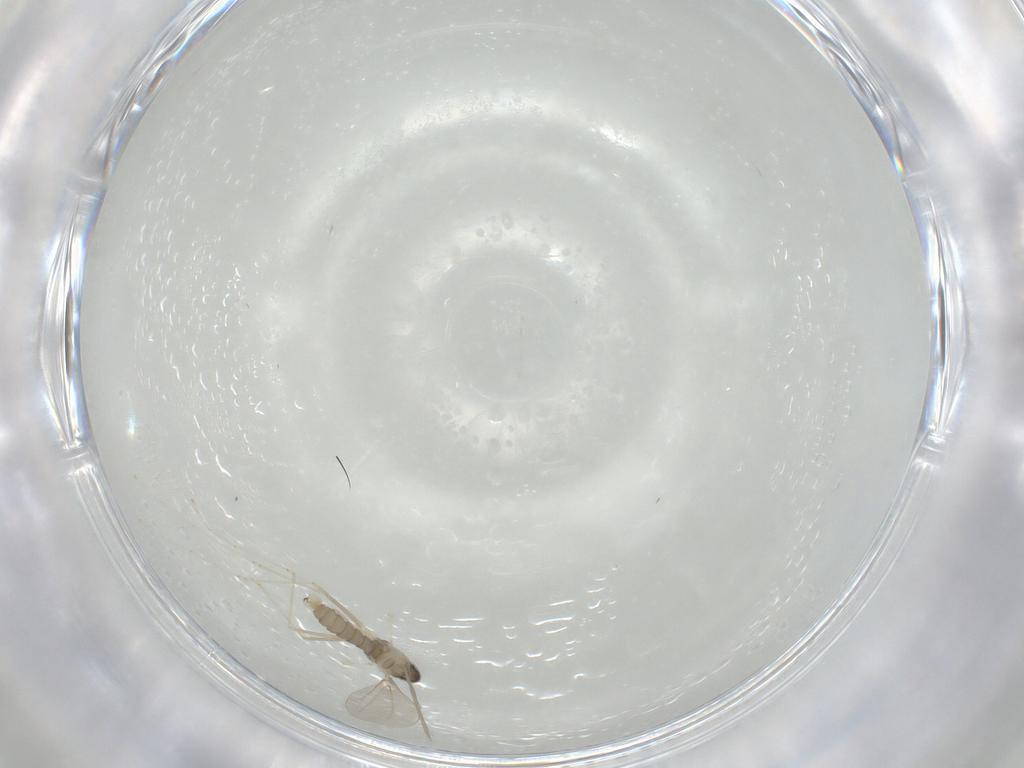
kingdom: Animalia
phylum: Arthropoda
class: Insecta
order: Diptera
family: Cecidomyiidae
